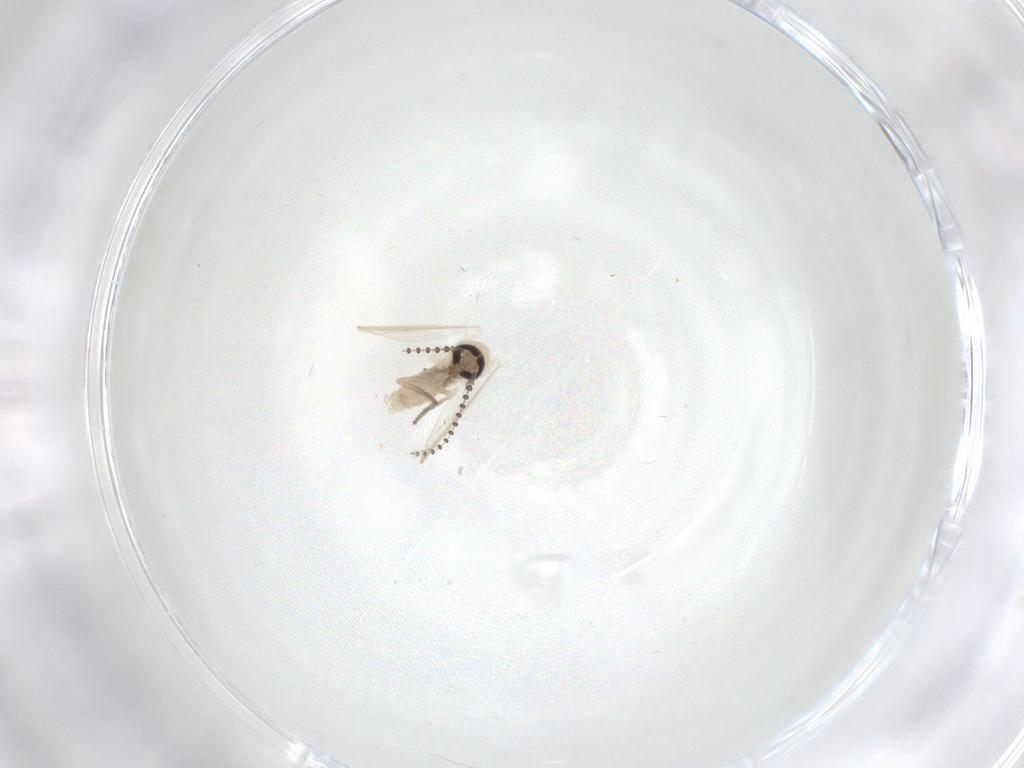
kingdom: Animalia
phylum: Arthropoda
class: Insecta
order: Diptera
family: Psychodidae
